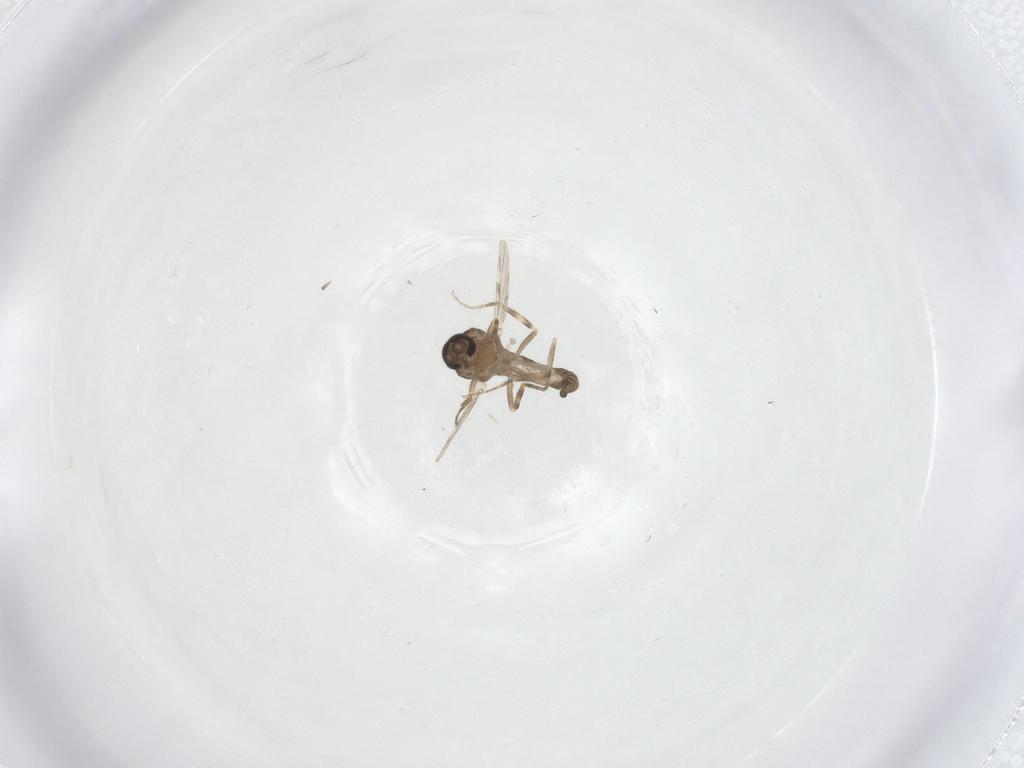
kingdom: Animalia
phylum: Arthropoda
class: Insecta
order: Diptera
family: Ceratopogonidae
